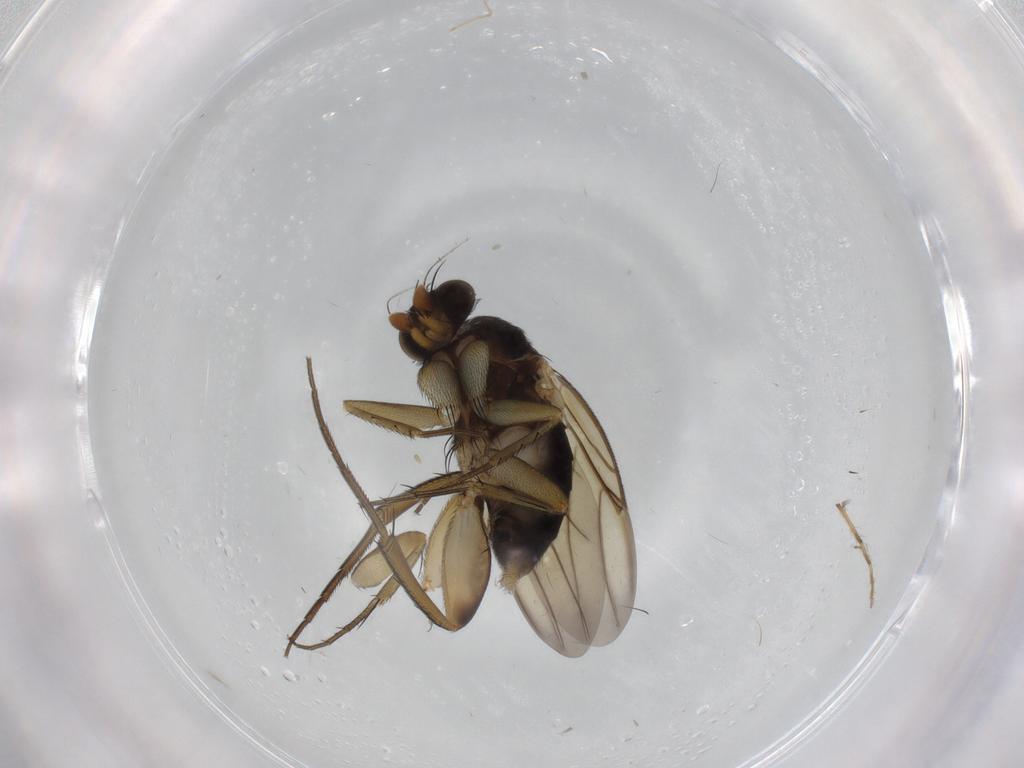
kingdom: Animalia
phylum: Arthropoda
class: Insecta
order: Diptera
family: Phoridae
